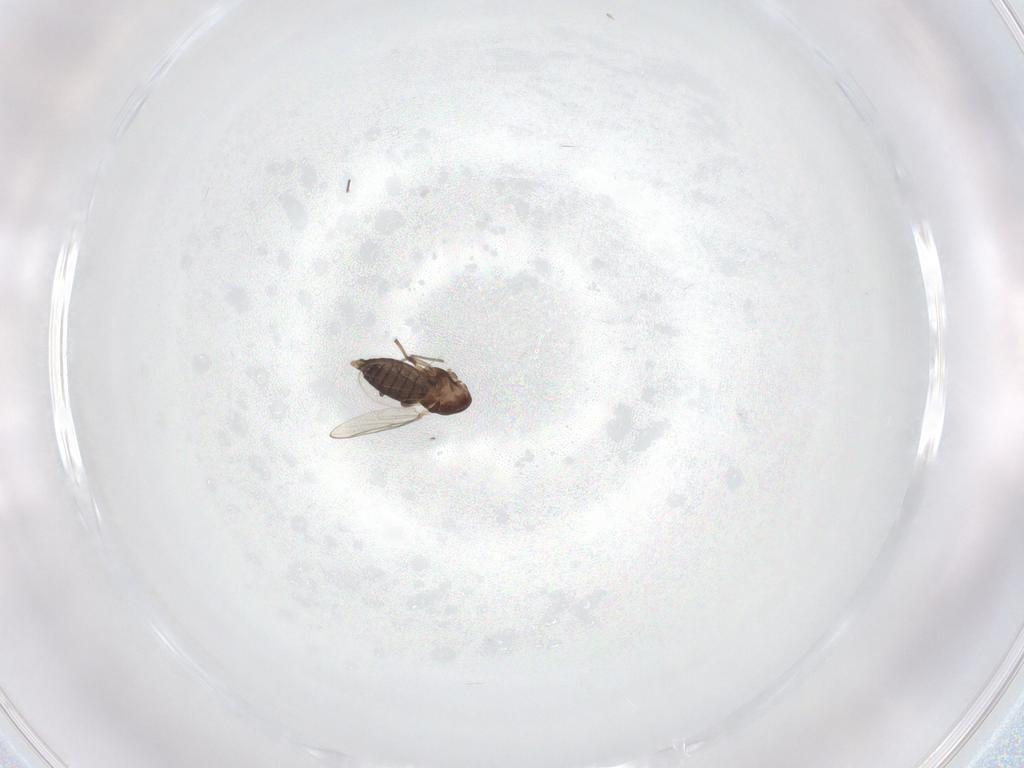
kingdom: Animalia
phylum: Arthropoda
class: Insecta
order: Diptera
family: Chironomidae
